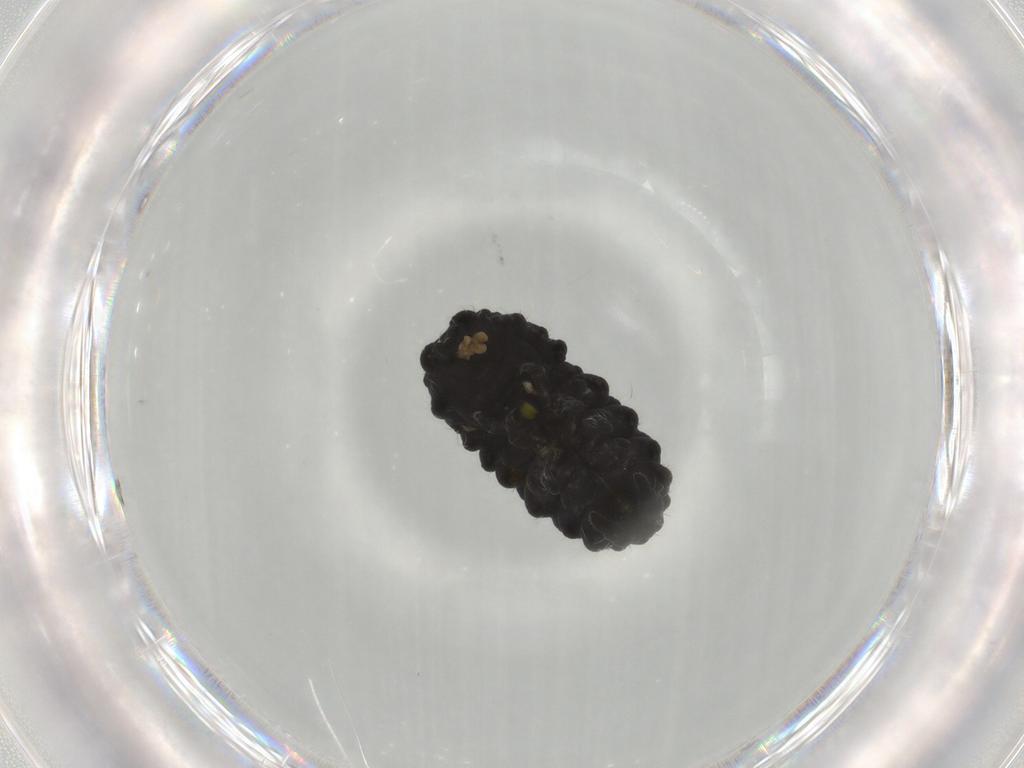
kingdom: Animalia
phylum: Arthropoda
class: Collembola
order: Poduromorpha
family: Neanuridae
